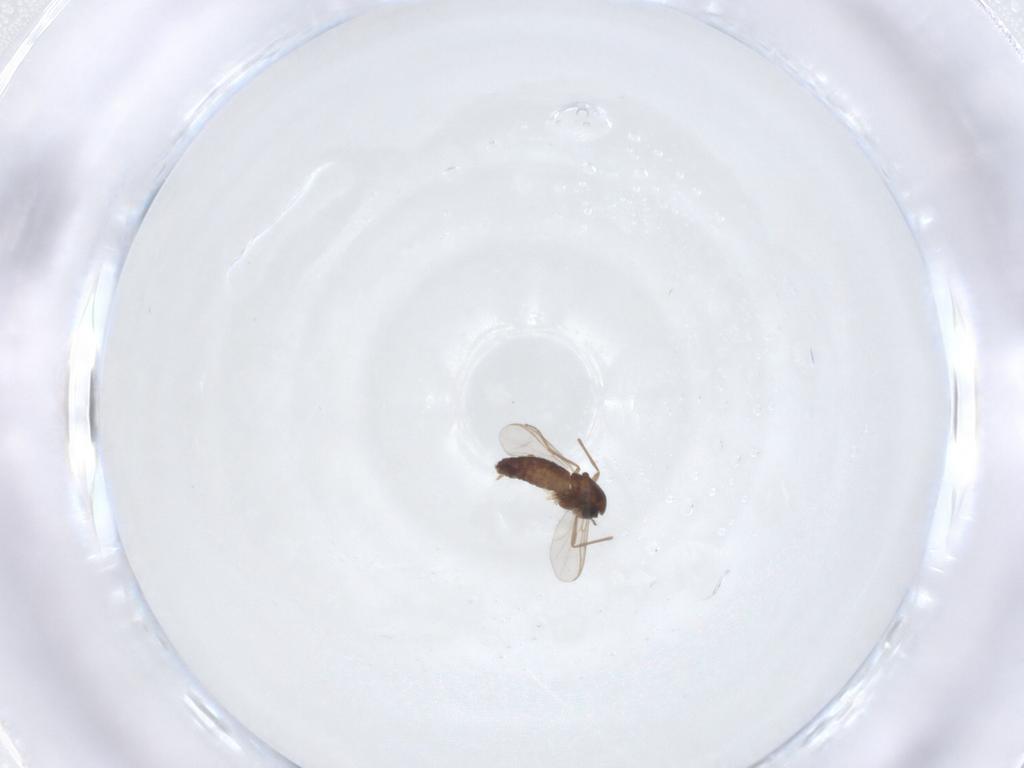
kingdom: Animalia
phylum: Arthropoda
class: Insecta
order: Diptera
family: Chironomidae
